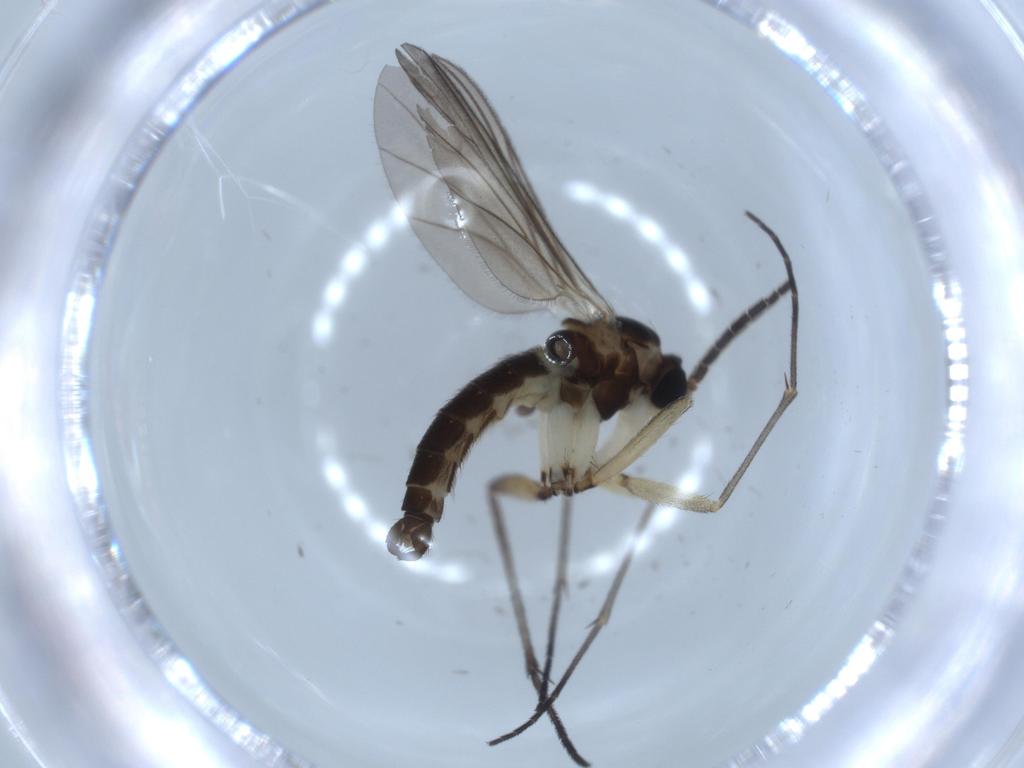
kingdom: Animalia
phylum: Arthropoda
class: Insecta
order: Diptera
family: Sciaridae
